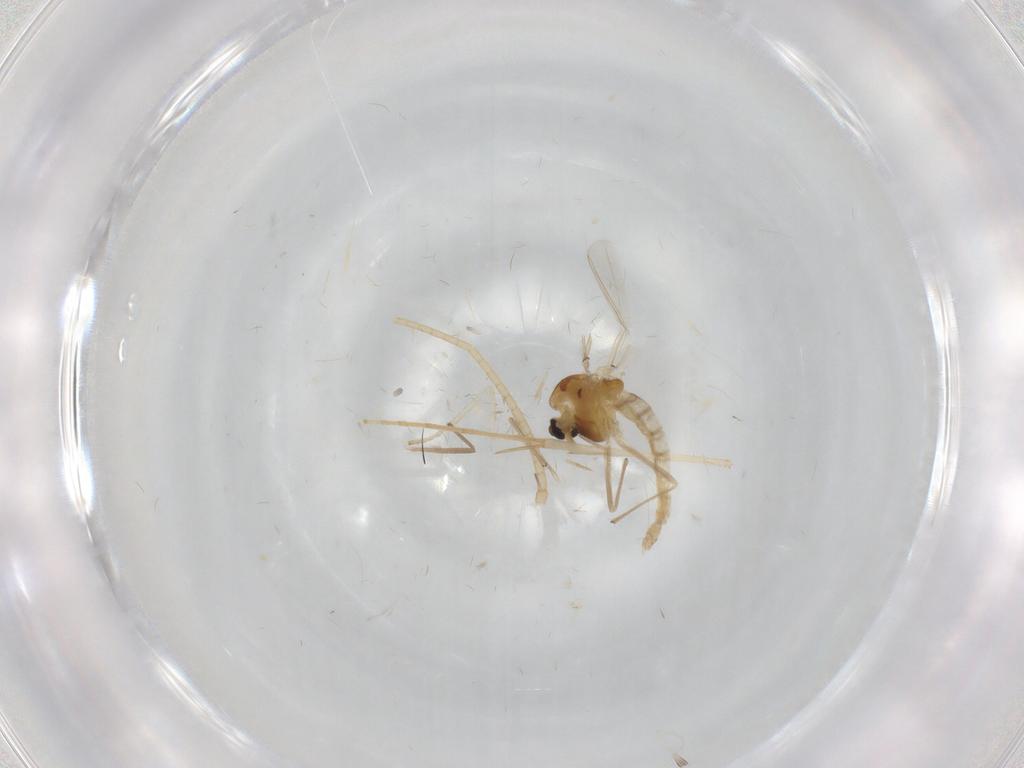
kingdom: Animalia
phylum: Arthropoda
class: Insecta
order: Diptera
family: Psychodidae
